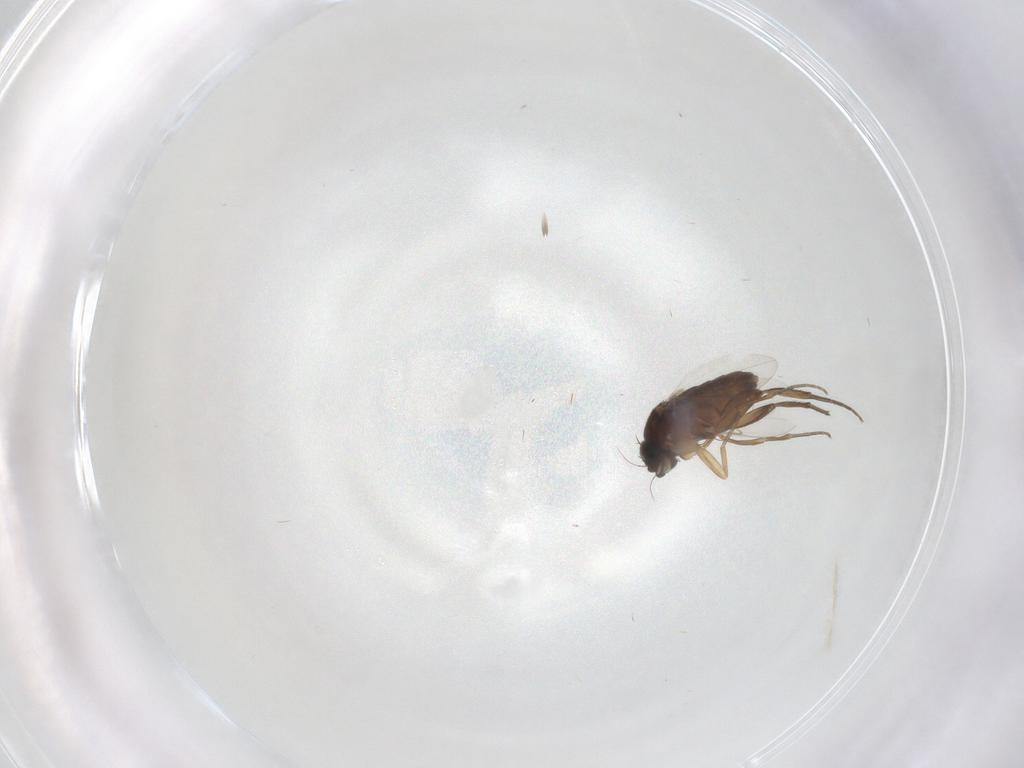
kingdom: Animalia
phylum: Arthropoda
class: Insecta
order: Diptera
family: Phoridae
